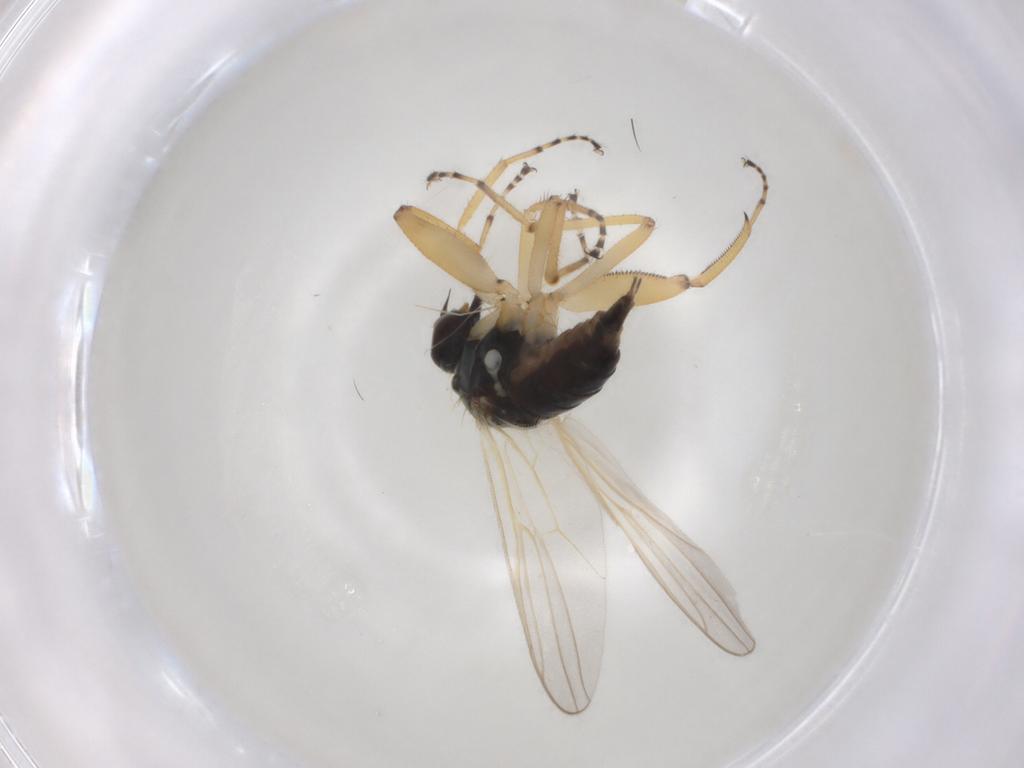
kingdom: Animalia
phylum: Arthropoda
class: Insecta
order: Diptera
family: Hybotidae
